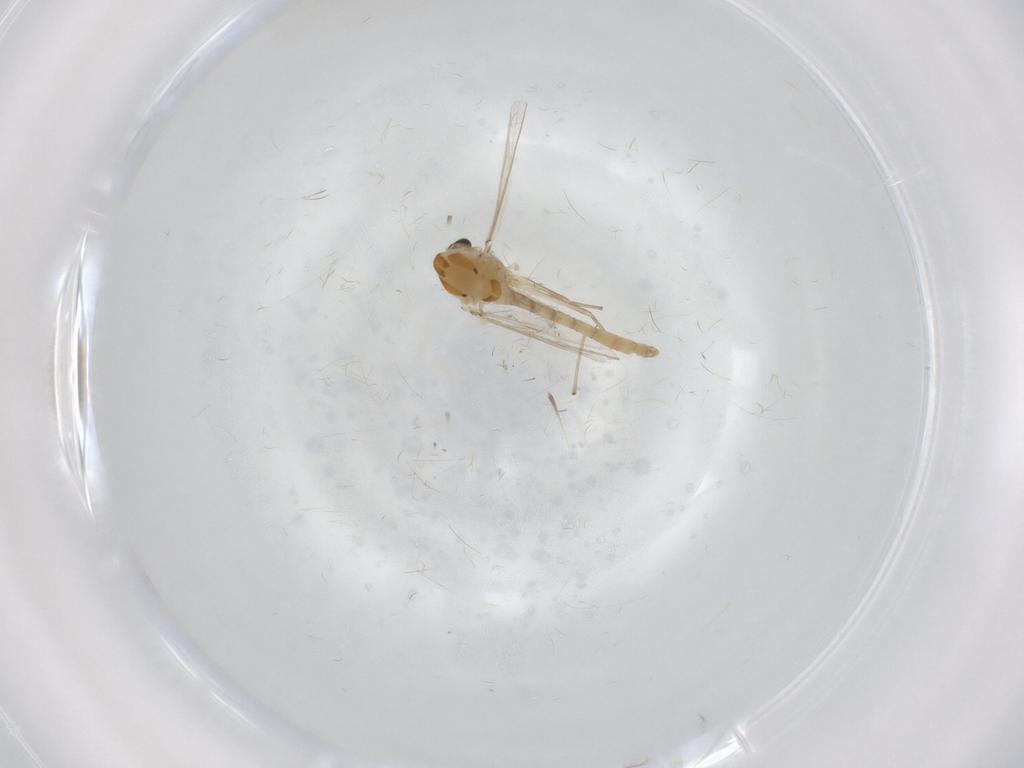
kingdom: Animalia
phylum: Arthropoda
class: Insecta
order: Diptera
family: Chironomidae
